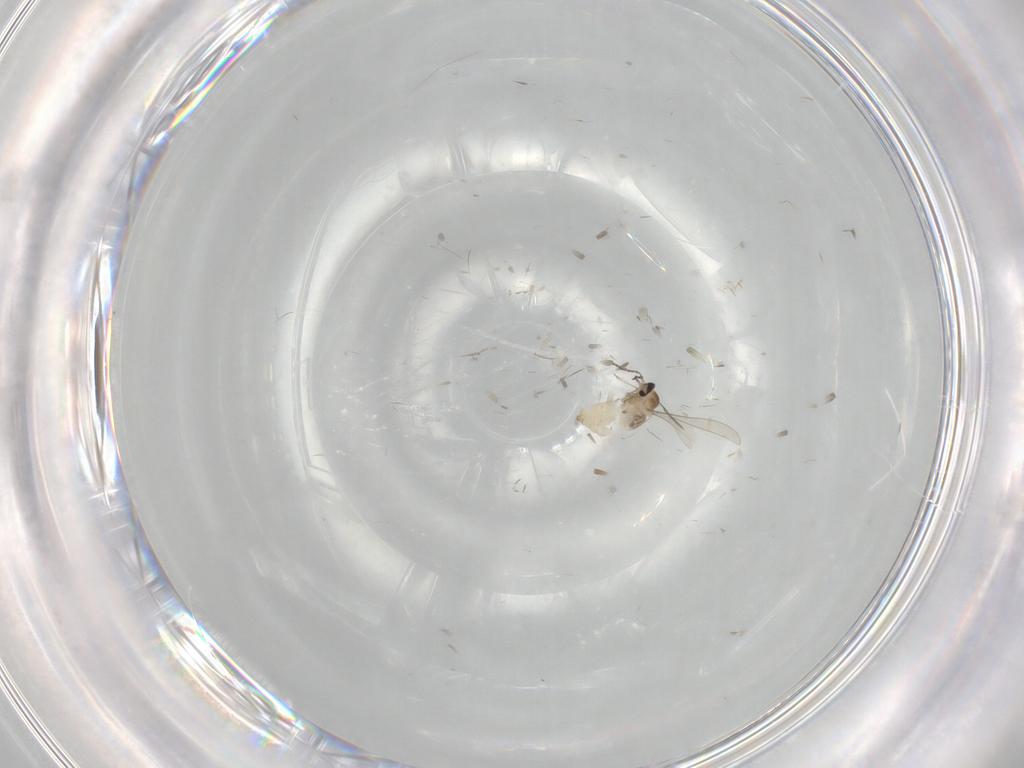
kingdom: Animalia
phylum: Arthropoda
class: Insecta
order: Diptera
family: Cecidomyiidae
